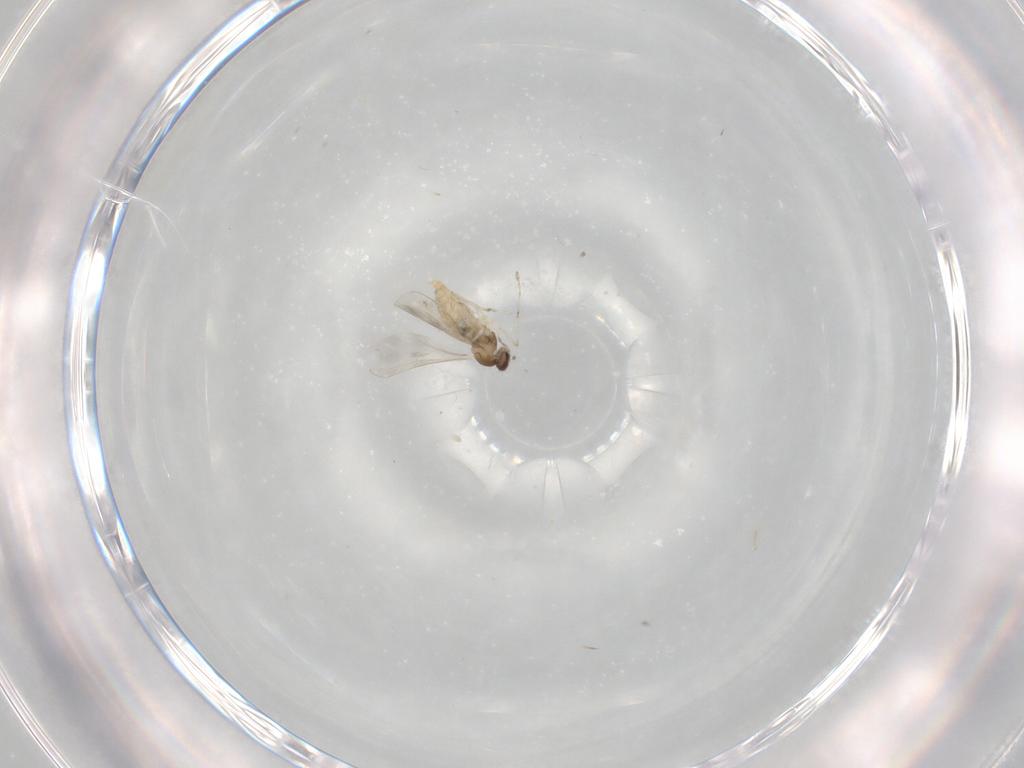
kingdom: Animalia
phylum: Arthropoda
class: Insecta
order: Diptera
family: Cecidomyiidae
